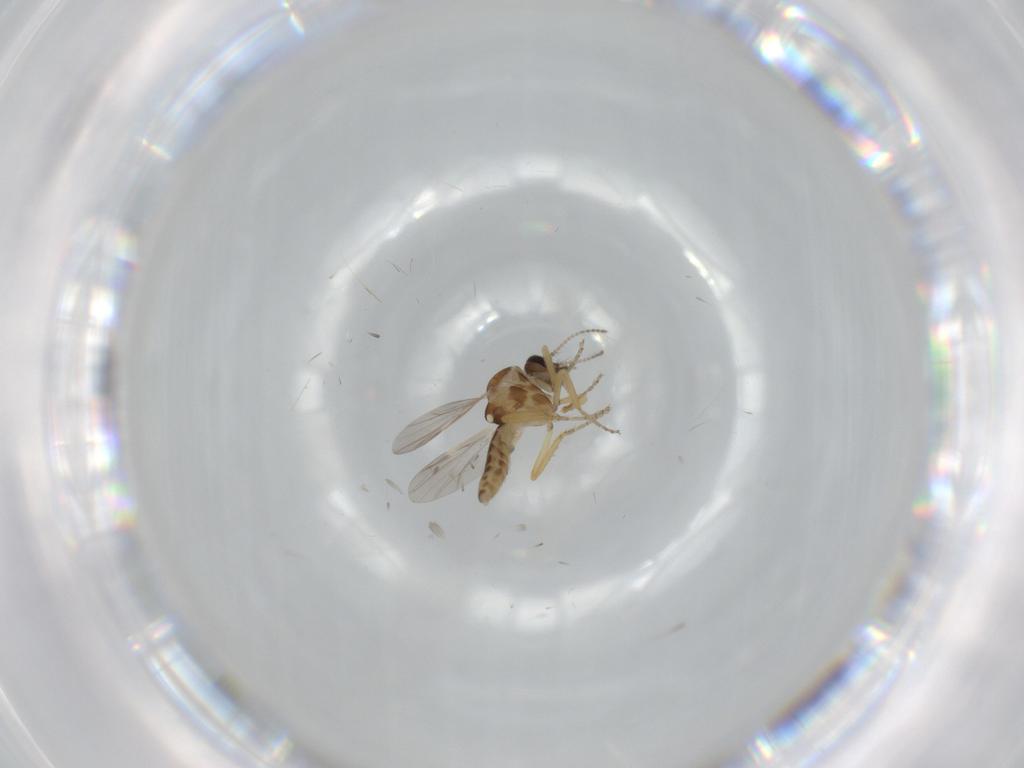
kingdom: Animalia
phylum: Arthropoda
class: Insecta
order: Diptera
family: Ceratopogonidae
